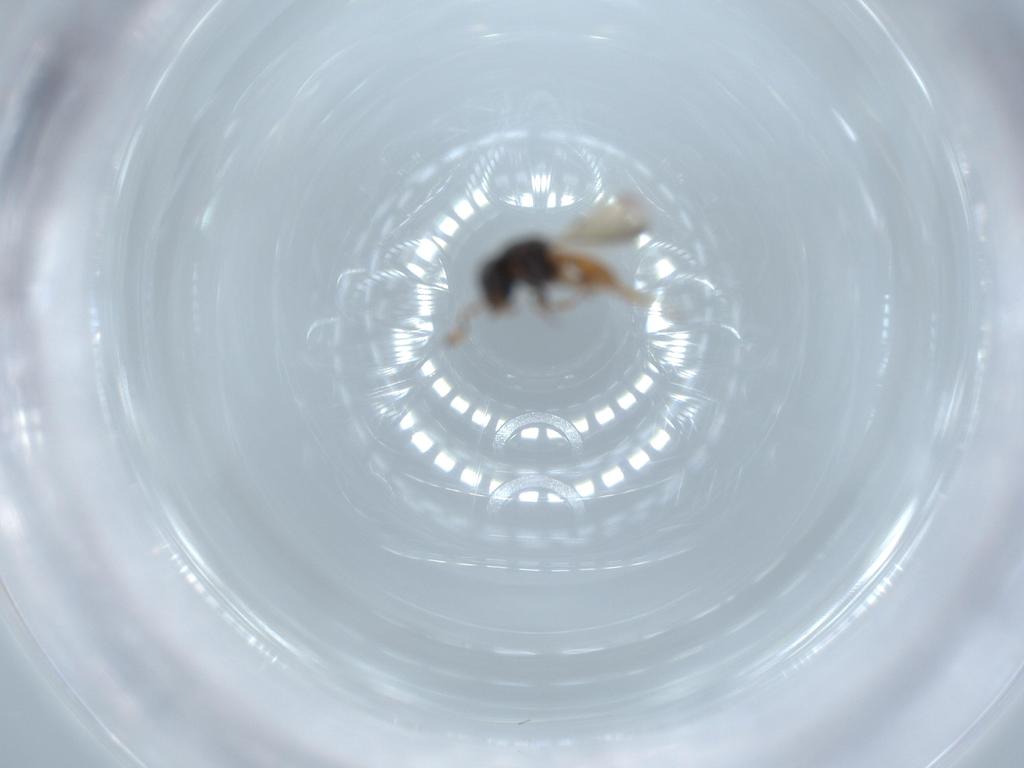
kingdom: Animalia
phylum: Arthropoda
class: Insecta
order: Hymenoptera
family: Scelionidae
